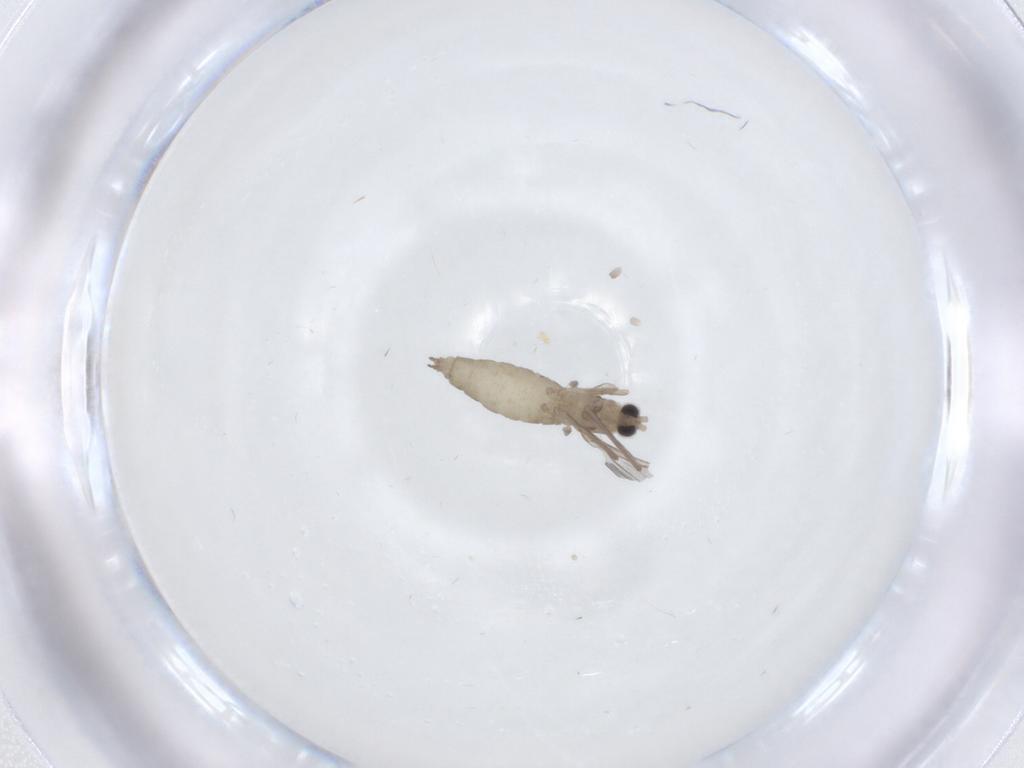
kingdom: Animalia
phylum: Arthropoda
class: Insecta
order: Diptera
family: Cecidomyiidae
